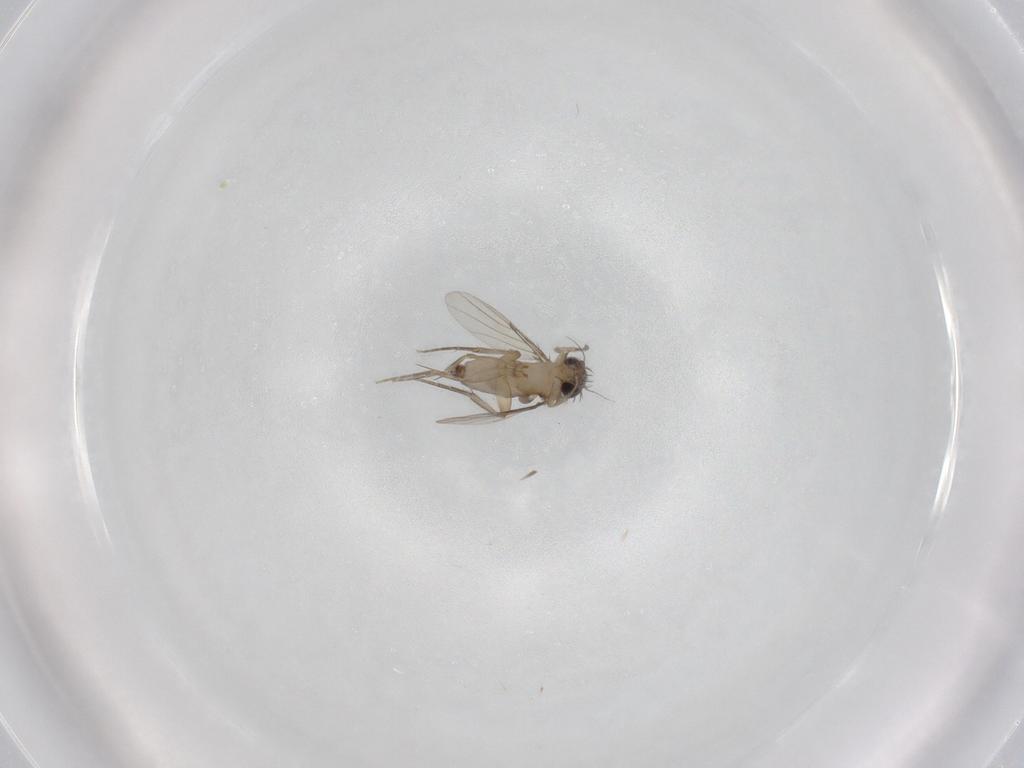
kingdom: Animalia
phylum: Arthropoda
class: Insecta
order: Diptera
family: Phoridae
